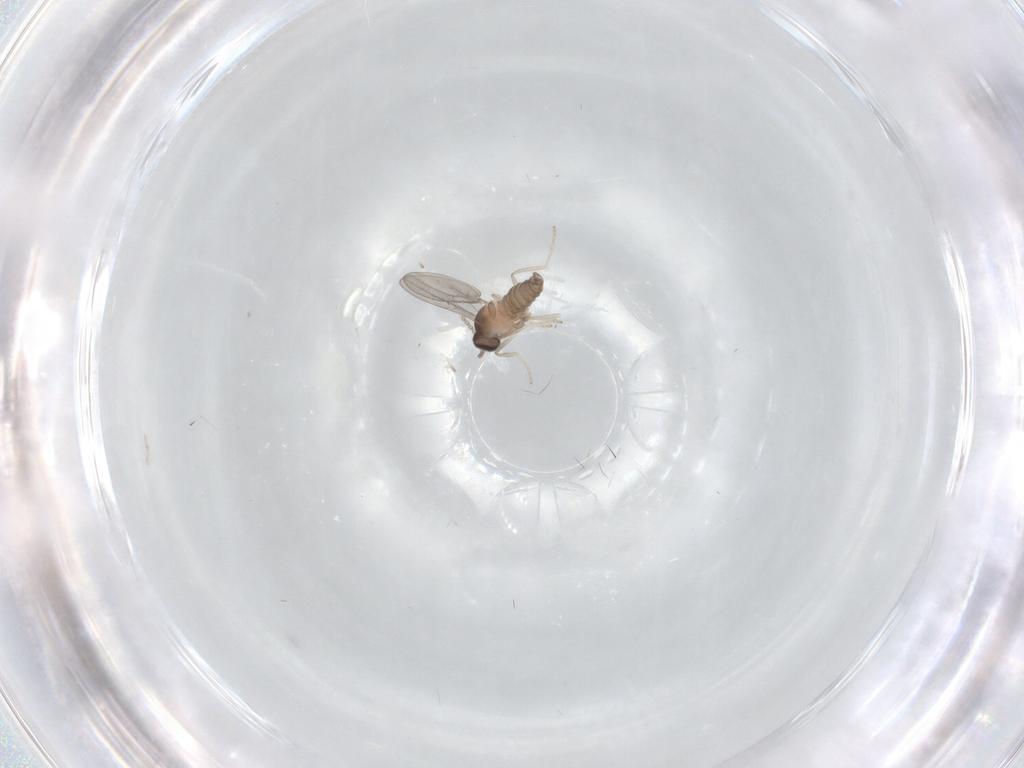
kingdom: Animalia
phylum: Arthropoda
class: Insecta
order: Diptera
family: Cecidomyiidae
